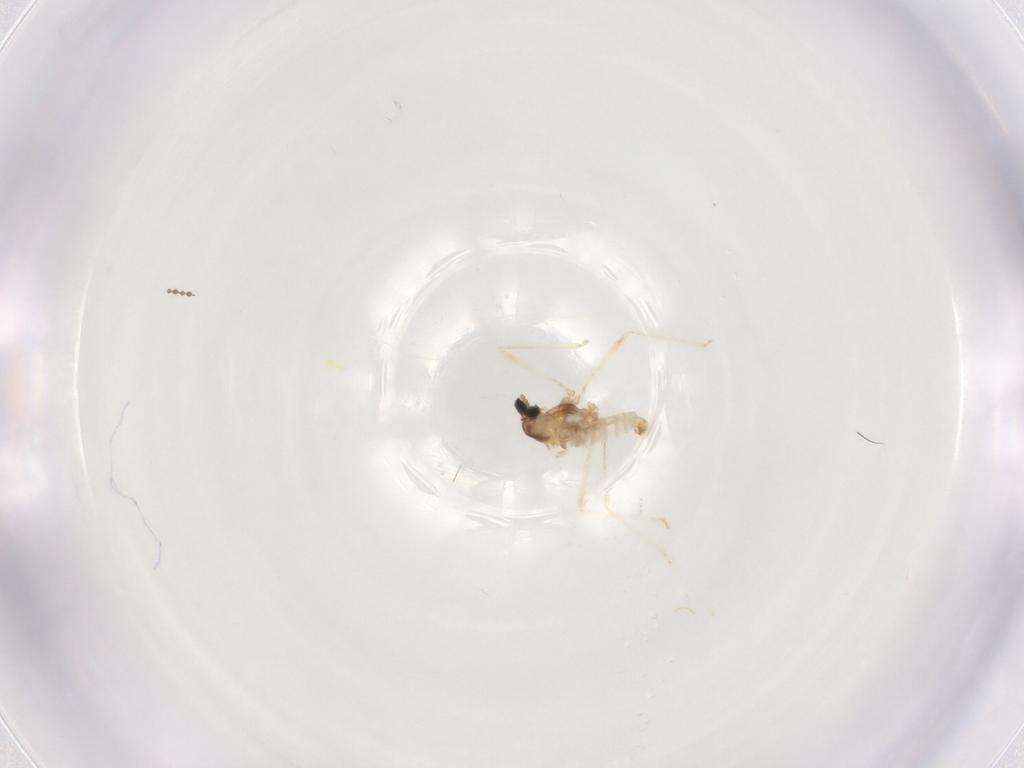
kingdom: Animalia
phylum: Arthropoda
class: Insecta
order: Diptera
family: Cecidomyiidae
